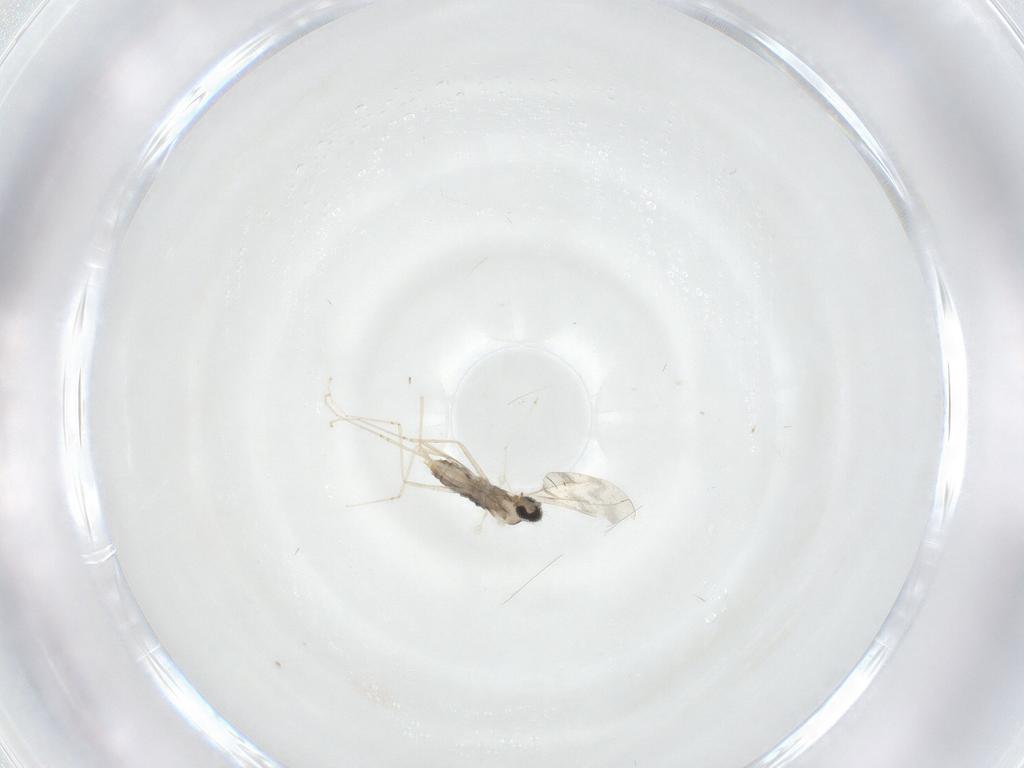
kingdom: Animalia
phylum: Arthropoda
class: Insecta
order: Diptera
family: Cecidomyiidae
